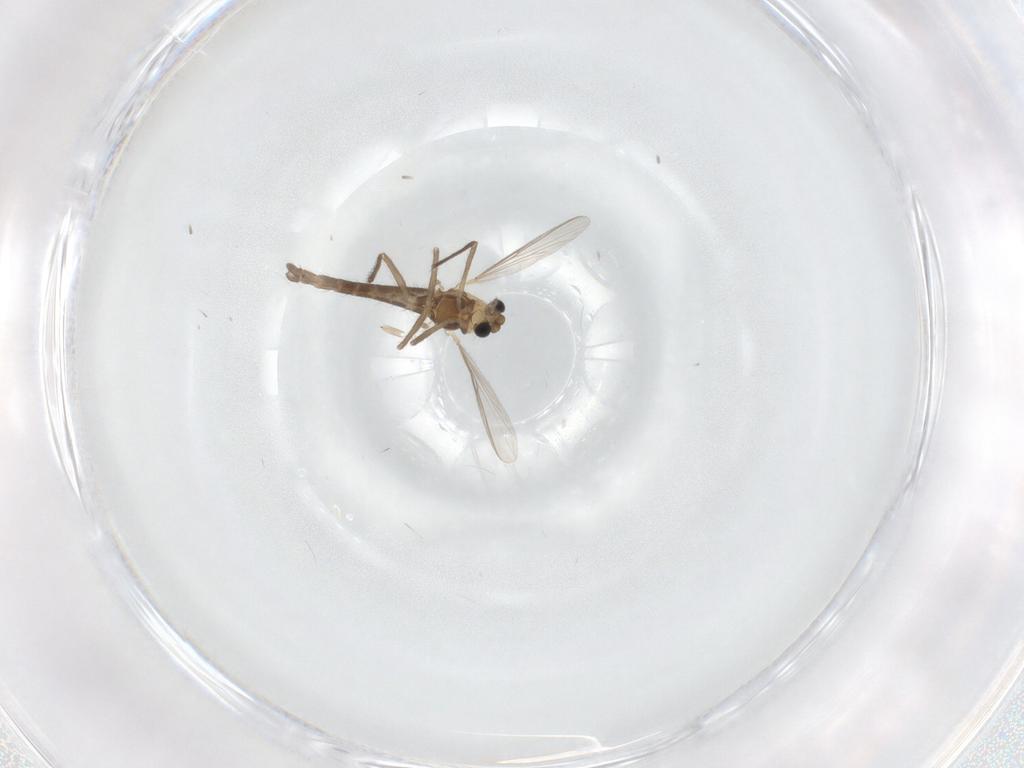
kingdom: Animalia
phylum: Arthropoda
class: Insecta
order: Diptera
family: Chironomidae
